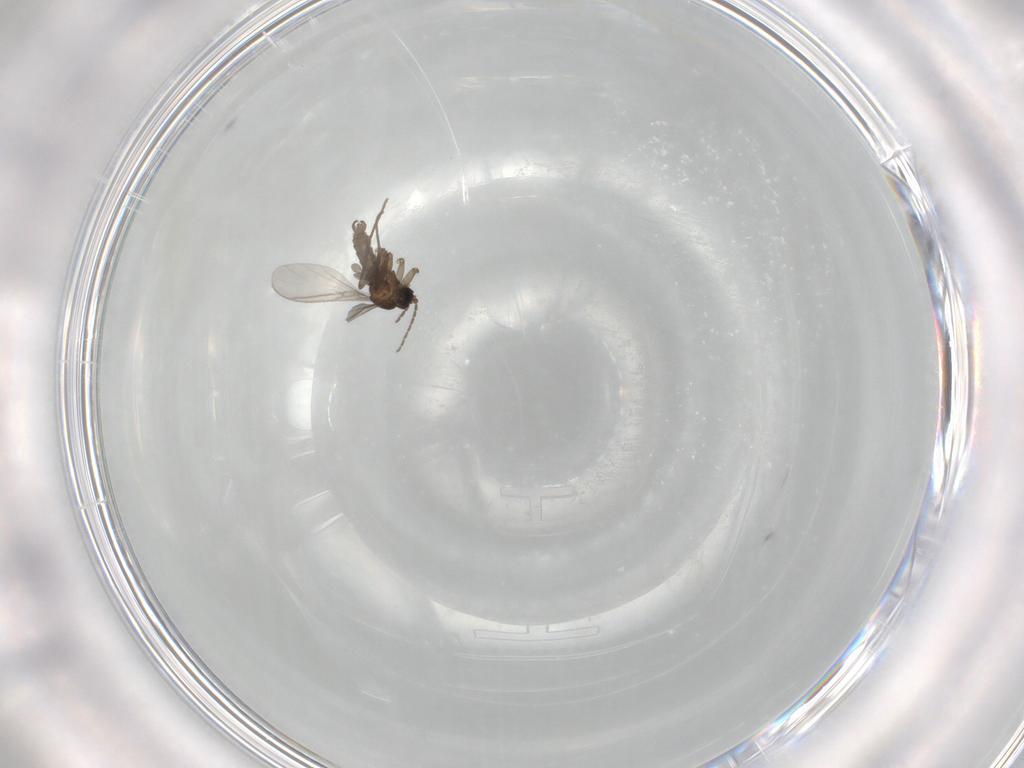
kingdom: Animalia
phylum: Arthropoda
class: Insecta
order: Diptera
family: Sciaridae
